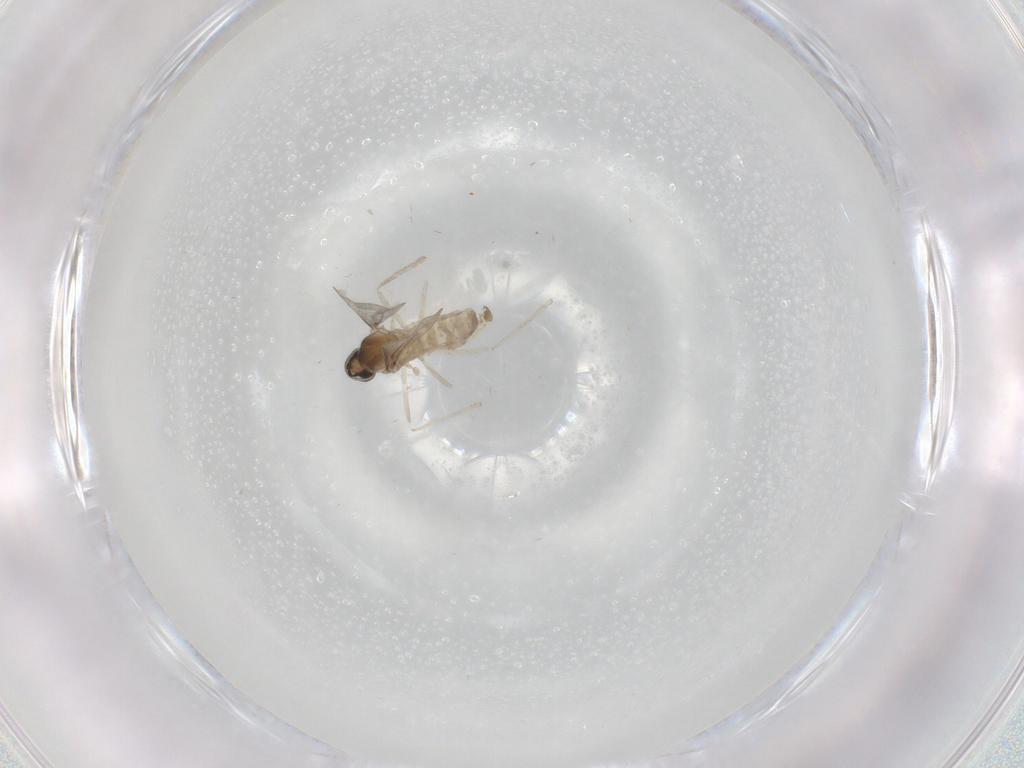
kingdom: Animalia
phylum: Arthropoda
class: Insecta
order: Diptera
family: Cecidomyiidae
